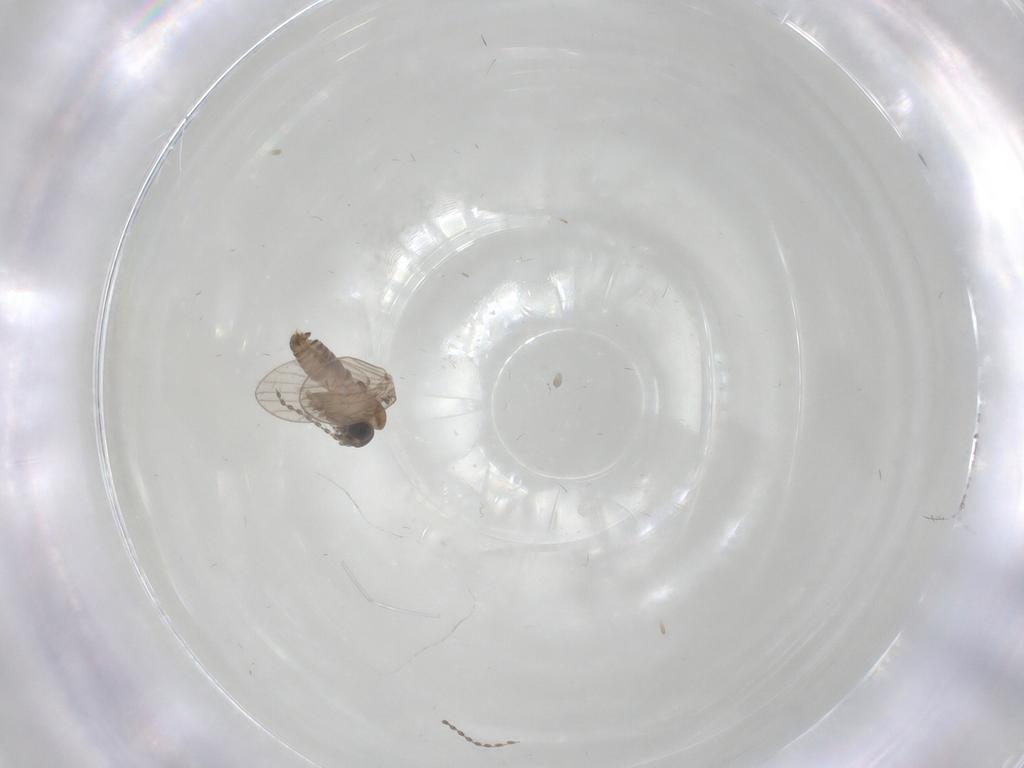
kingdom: Animalia
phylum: Arthropoda
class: Insecta
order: Diptera
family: Psychodidae
